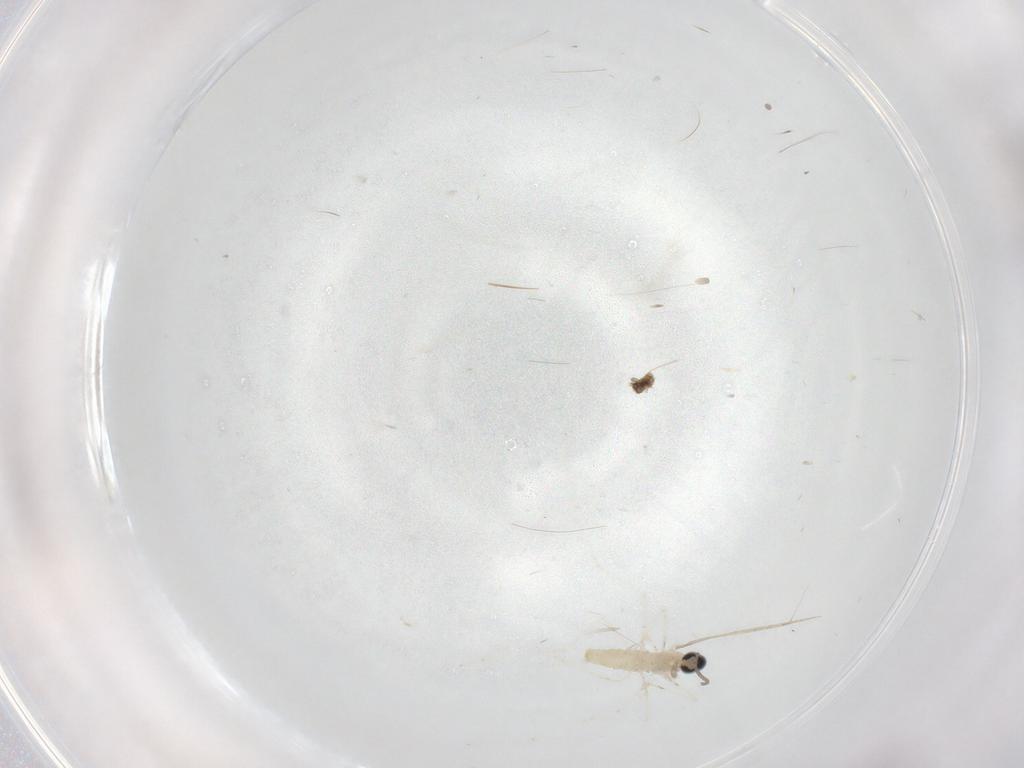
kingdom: Animalia
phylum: Arthropoda
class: Insecta
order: Diptera
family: Cecidomyiidae
